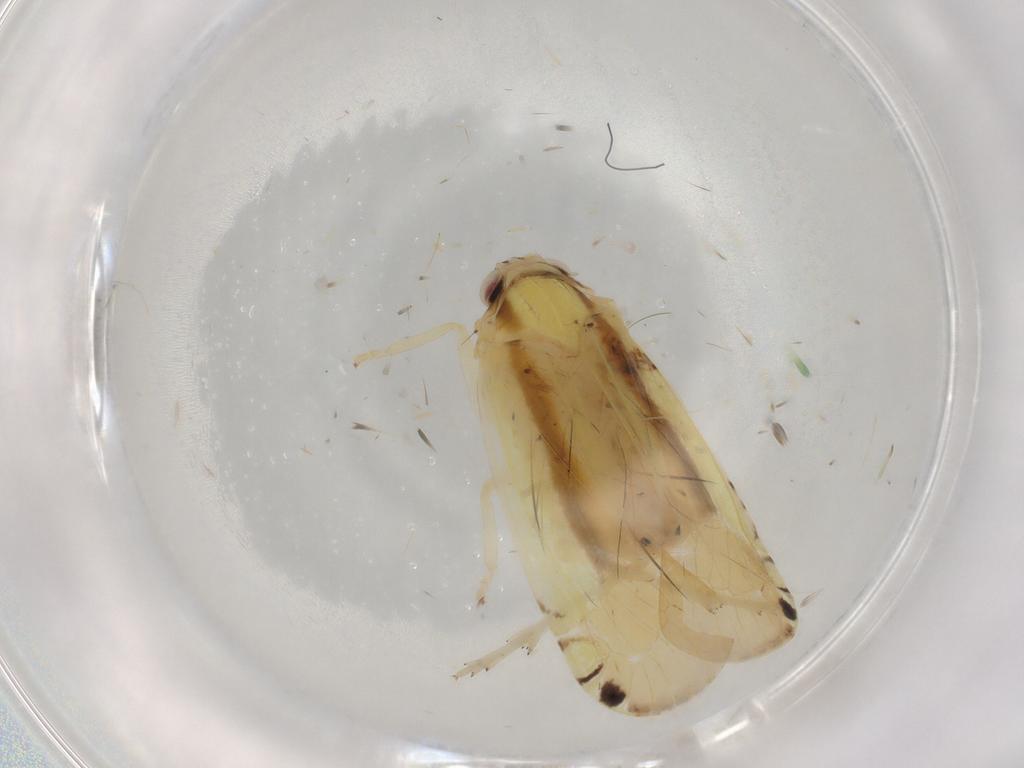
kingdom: Animalia
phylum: Arthropoda
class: Insecta
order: Hemiptera
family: Achilidae
